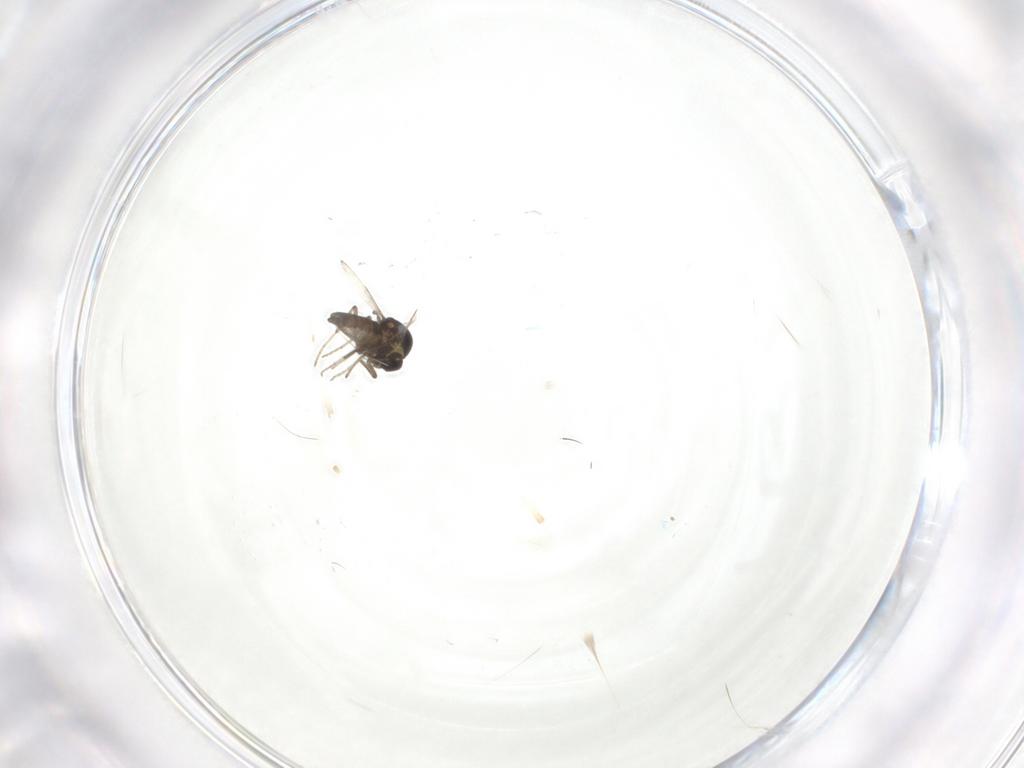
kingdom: Animalia
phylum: Arthropoda
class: Insecta
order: Diptera
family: Ceratopogonidae
